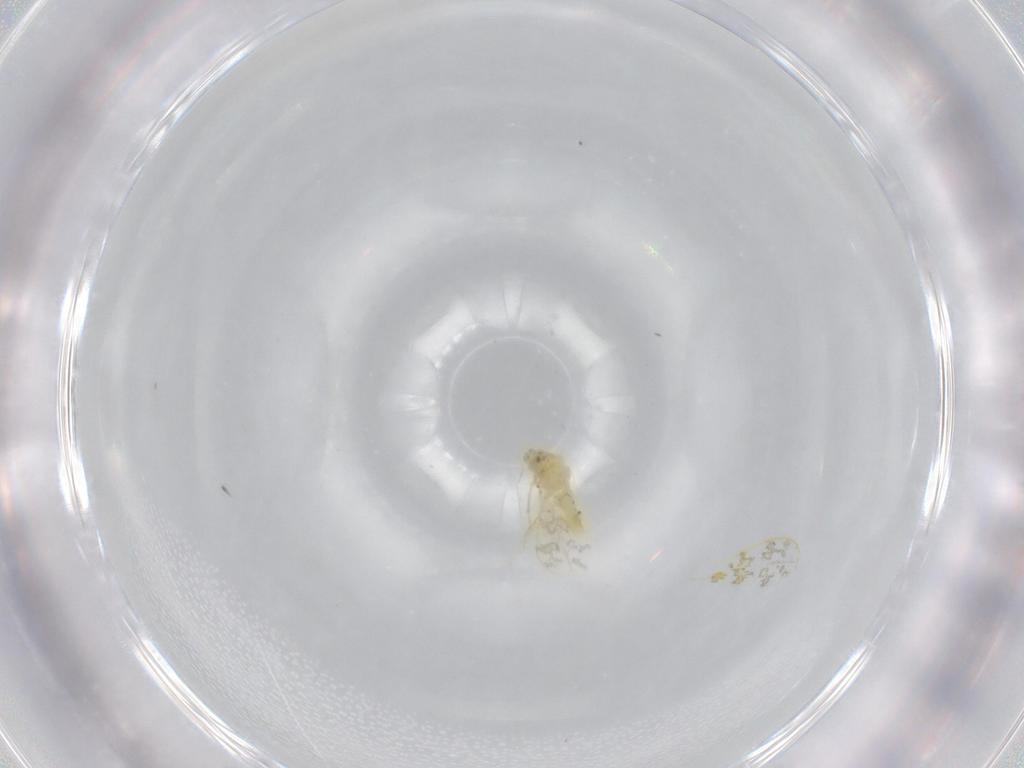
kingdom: Animalia
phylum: Arthropoda
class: Insecta
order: Hemiptera
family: Aleyrodidae
